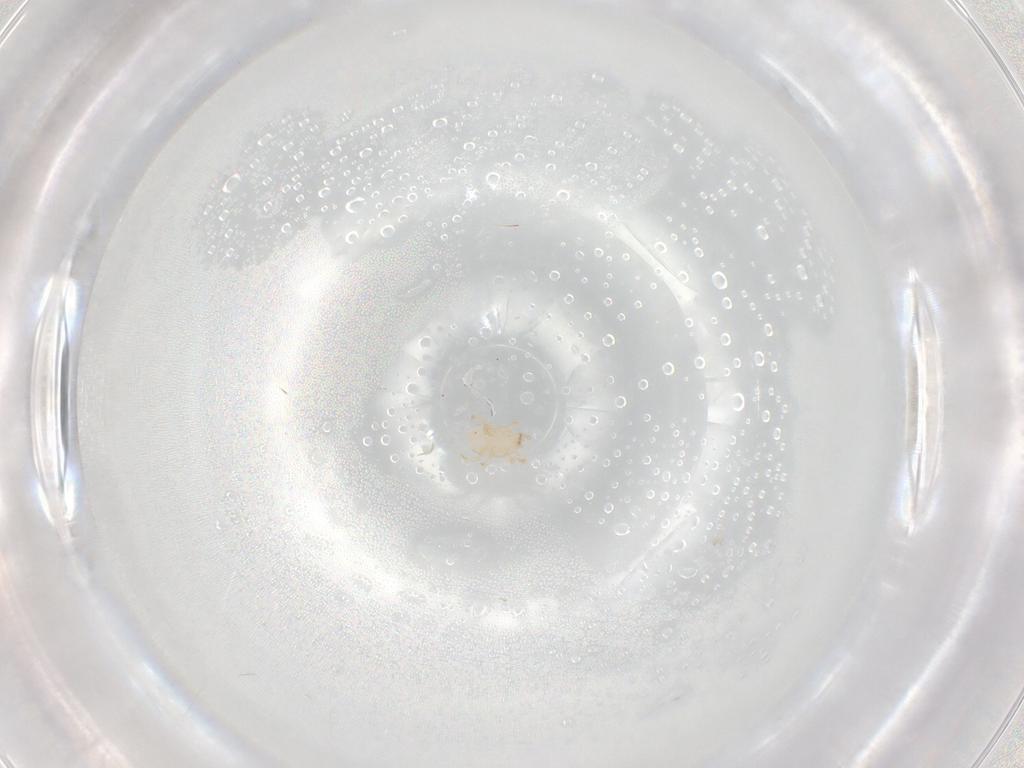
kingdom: Animalia
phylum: Arthropoda
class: Arachnida
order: Mesostigmata
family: Melicharidae
